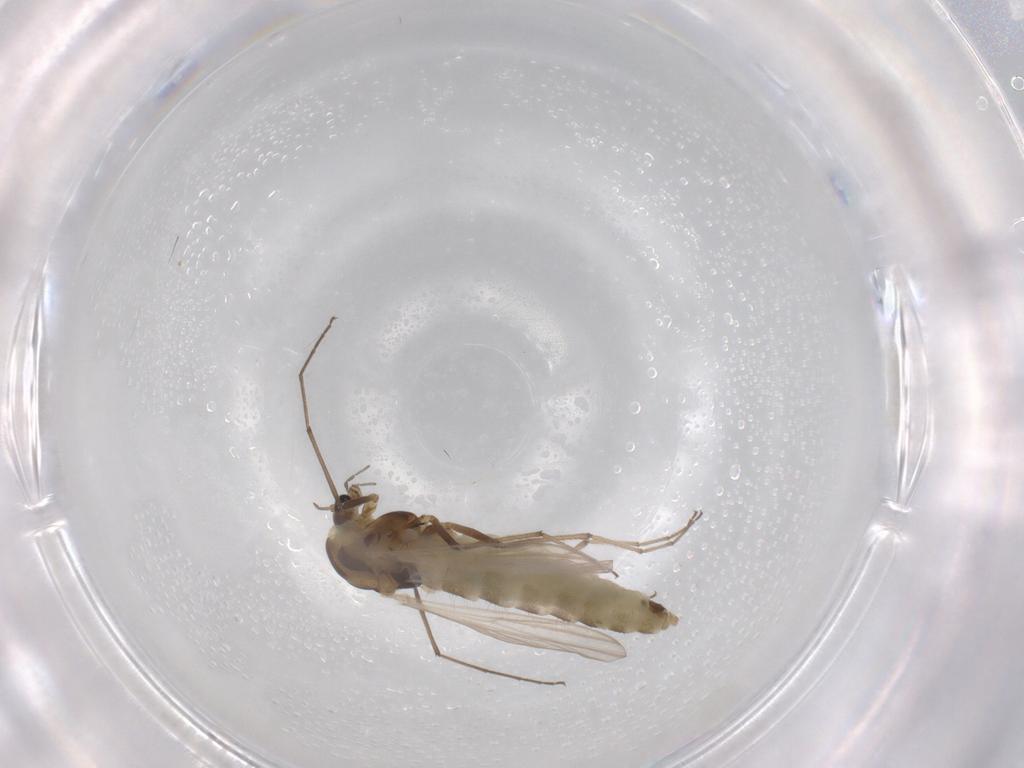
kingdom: Animalia
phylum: Arthropoda
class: Insecta
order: Diptera
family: Chironomidae
